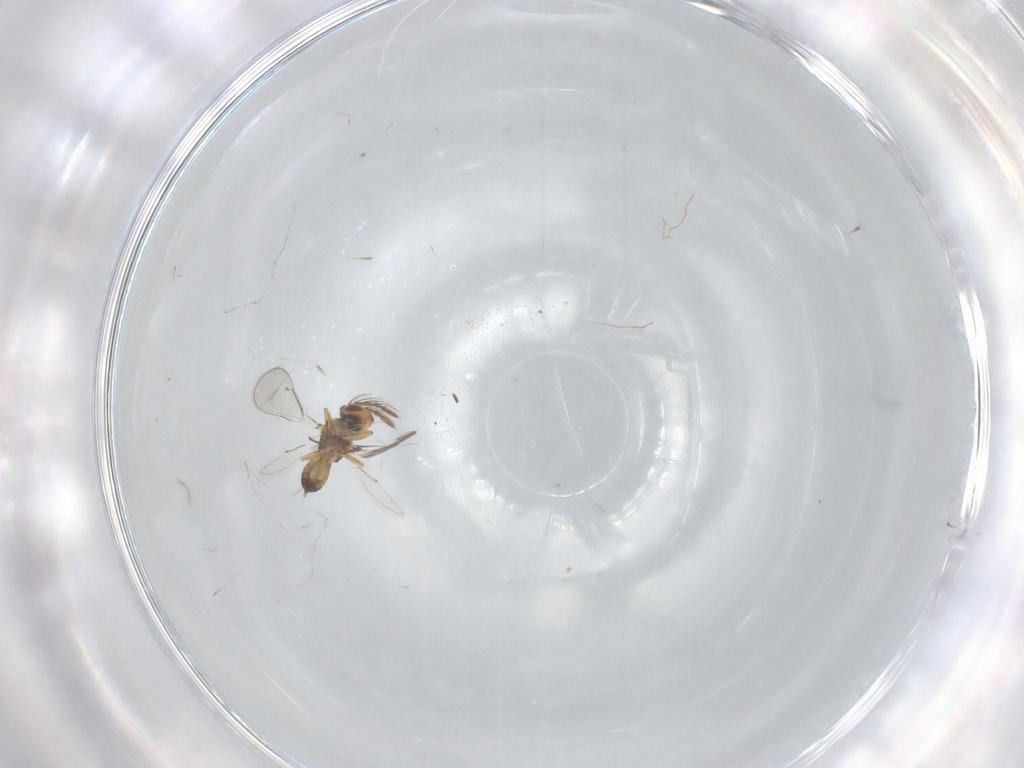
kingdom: Animalia
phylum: Arthropoda
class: Insecta
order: Hymenoptera
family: Eulophidae
